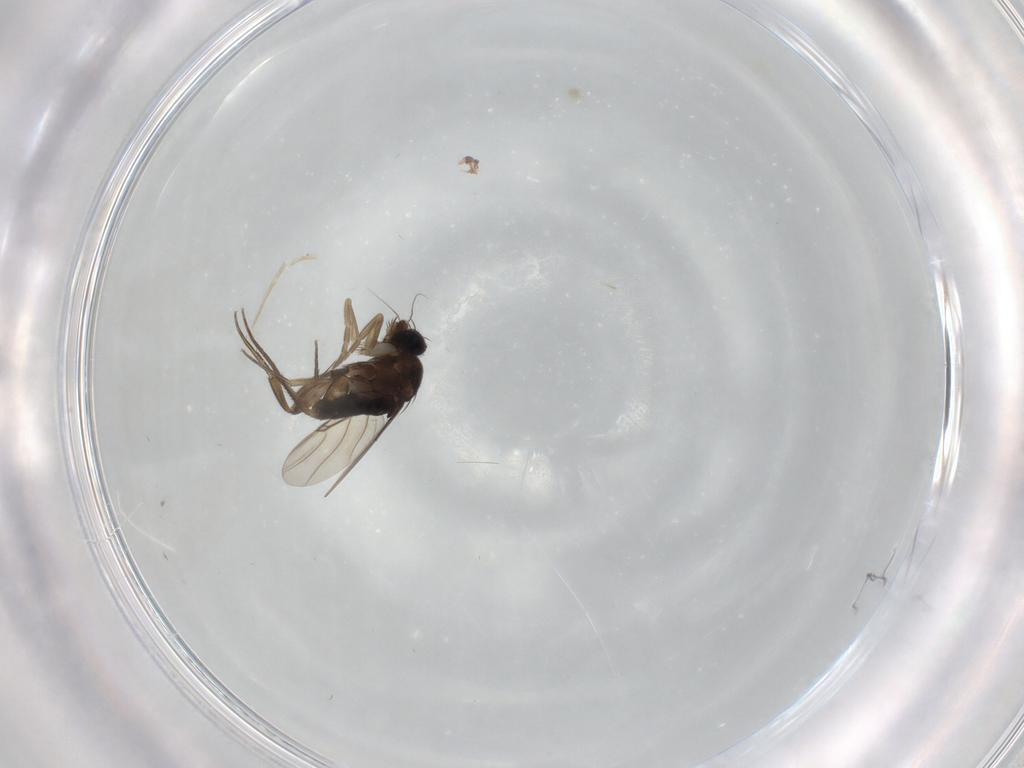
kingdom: Animalia
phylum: Arthropoda
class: Insecta
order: Diptera
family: Phoridae
